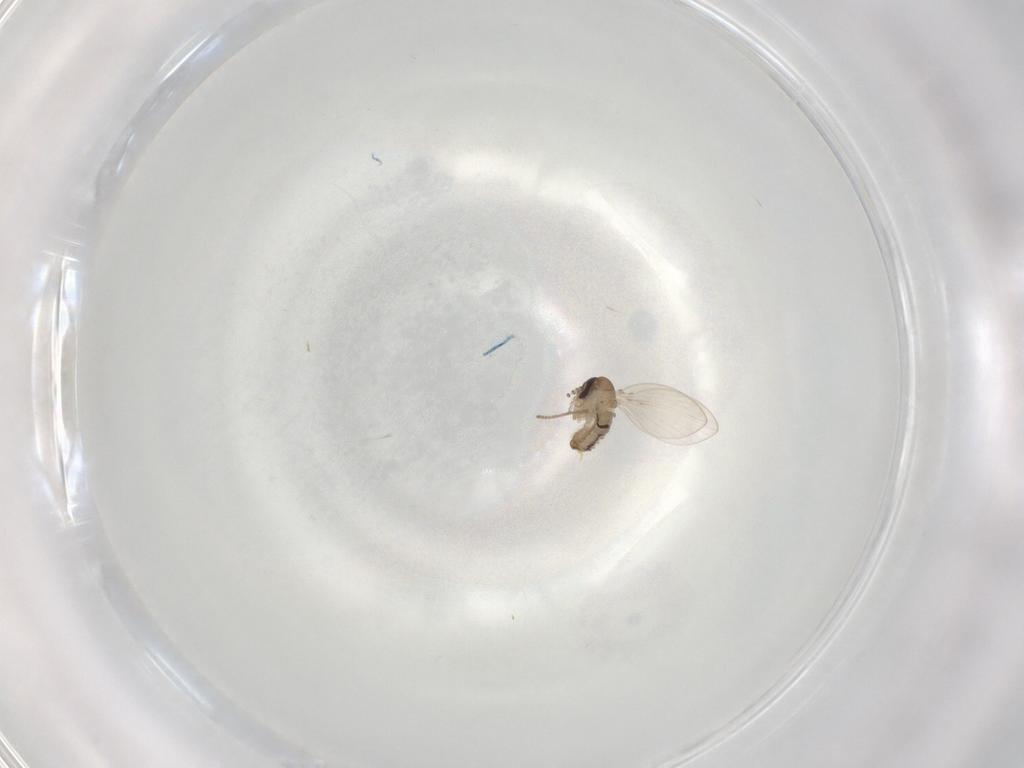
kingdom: Animalia
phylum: Arthropoda
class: Insecta
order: Diptera
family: Psychodidae
